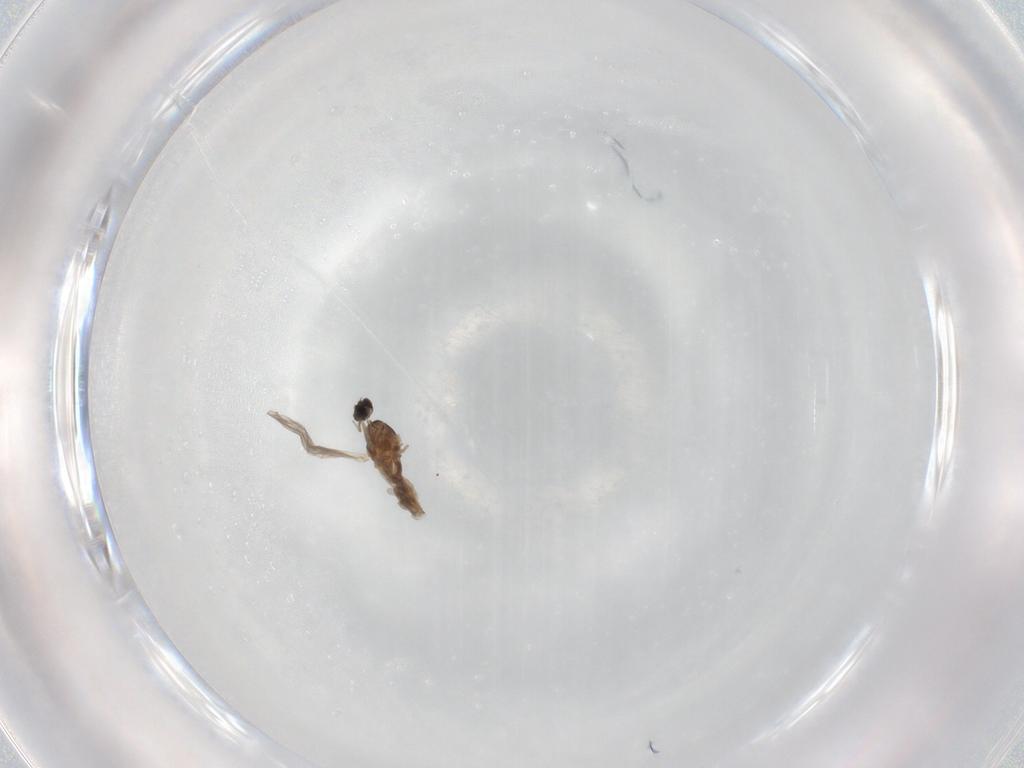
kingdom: Animalia
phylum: Arthropoda
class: Insecta
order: Diptera
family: Cecidomyiidae
